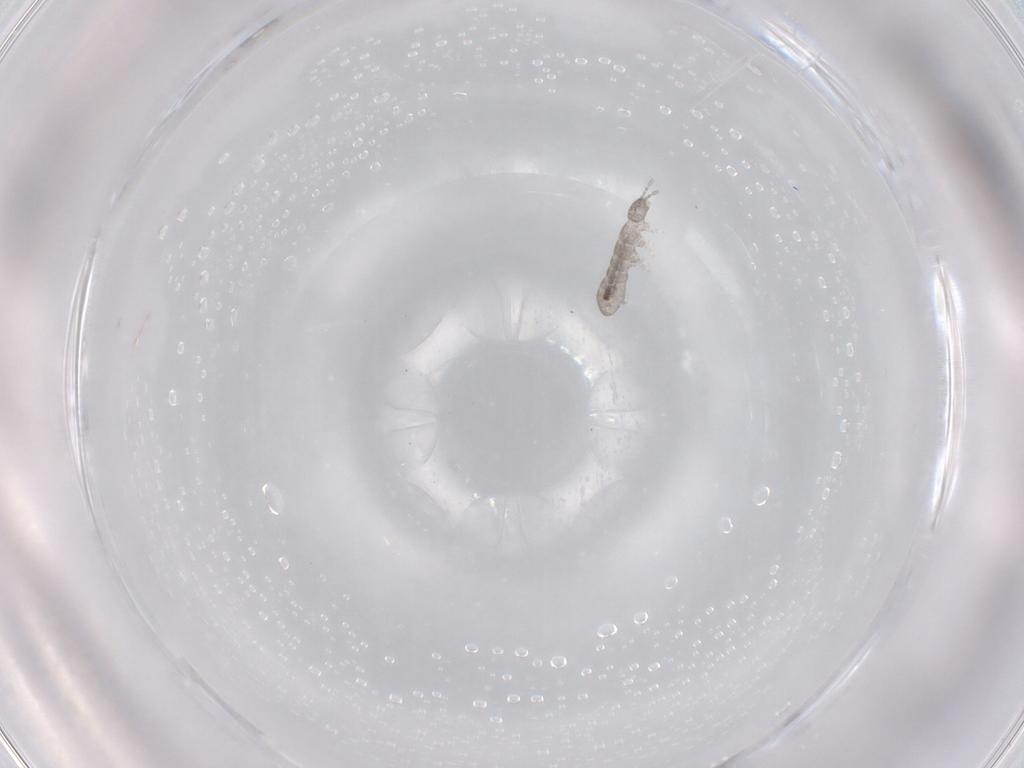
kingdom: Animalia
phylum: Arthropoda
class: Collembola
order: Entomobryomorpha
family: Isotomidae
